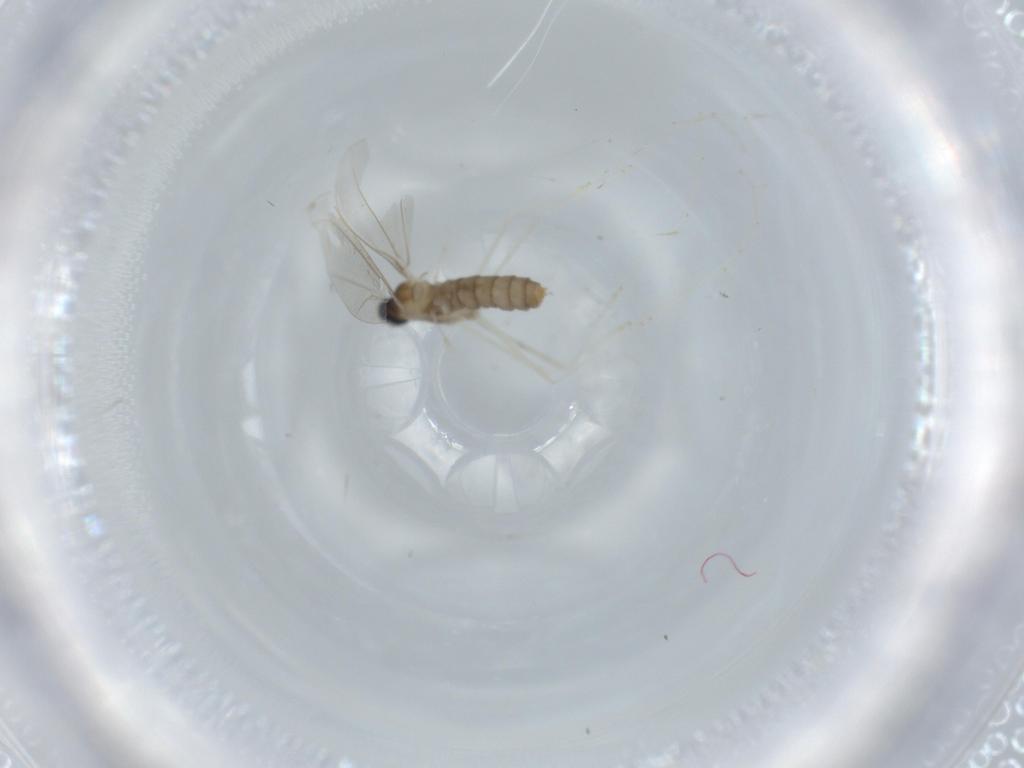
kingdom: Animalia
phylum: Arthropoda
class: Insecta
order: Diptera
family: Cecidomyiidae
